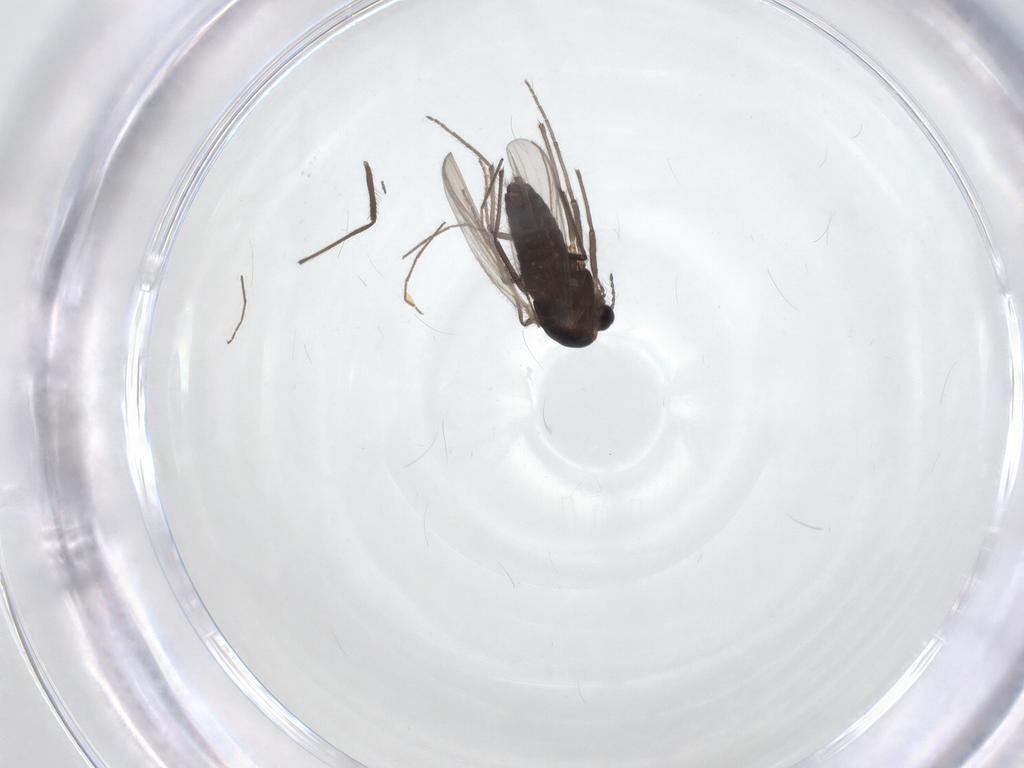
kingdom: Animalia
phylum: Arthropoda
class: Insecta
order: Diptera
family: Chironomidae
